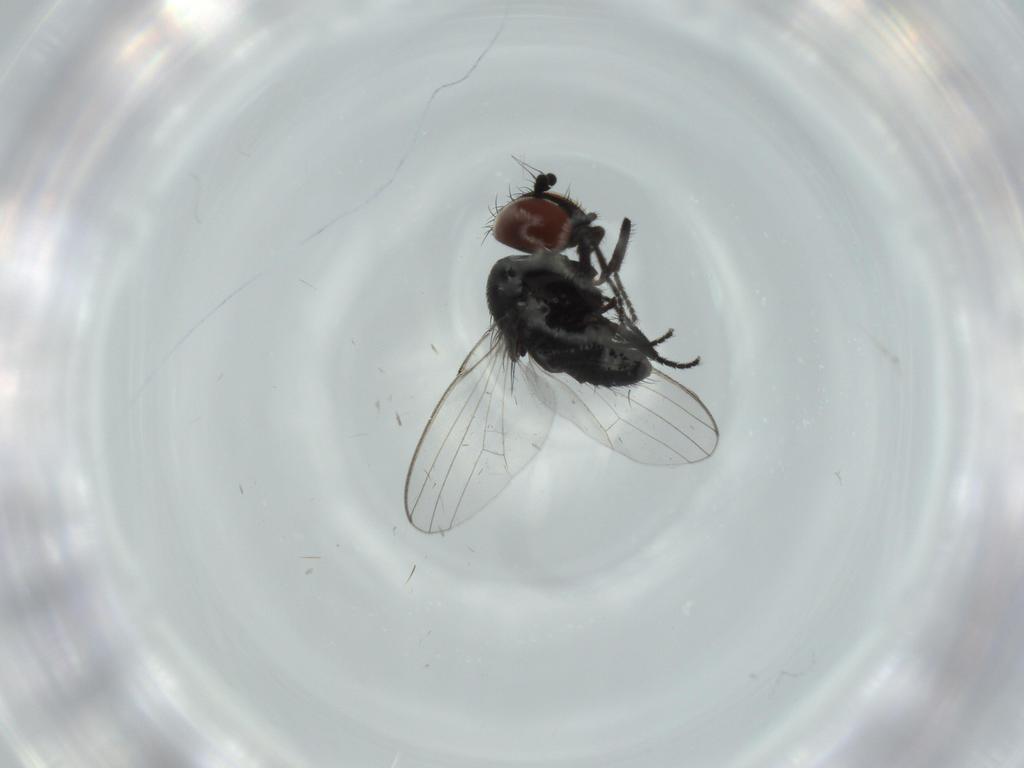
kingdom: Animalia
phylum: Arthropoda
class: Insecta
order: Diptera
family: Milichiidae
